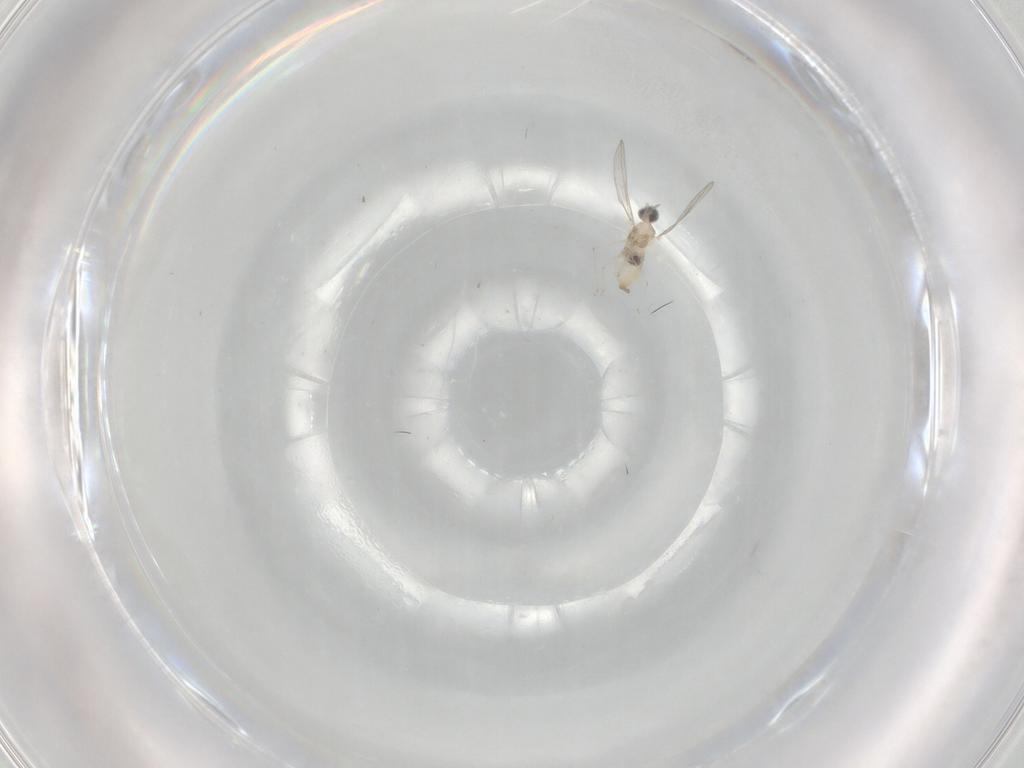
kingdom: Animalia
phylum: Arthropoda
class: Insecta
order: Diptera
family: Cecidomyiidae
